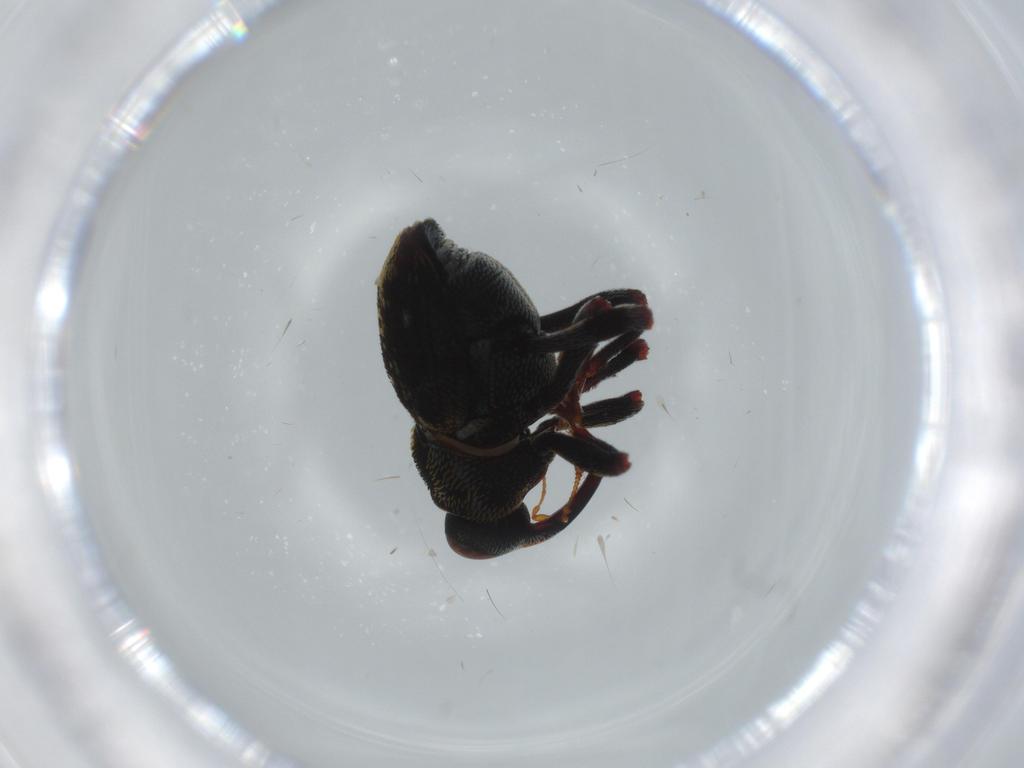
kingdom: Animalia
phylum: Arthropoda
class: Insecta
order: Coleoptera
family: Curculionidae
